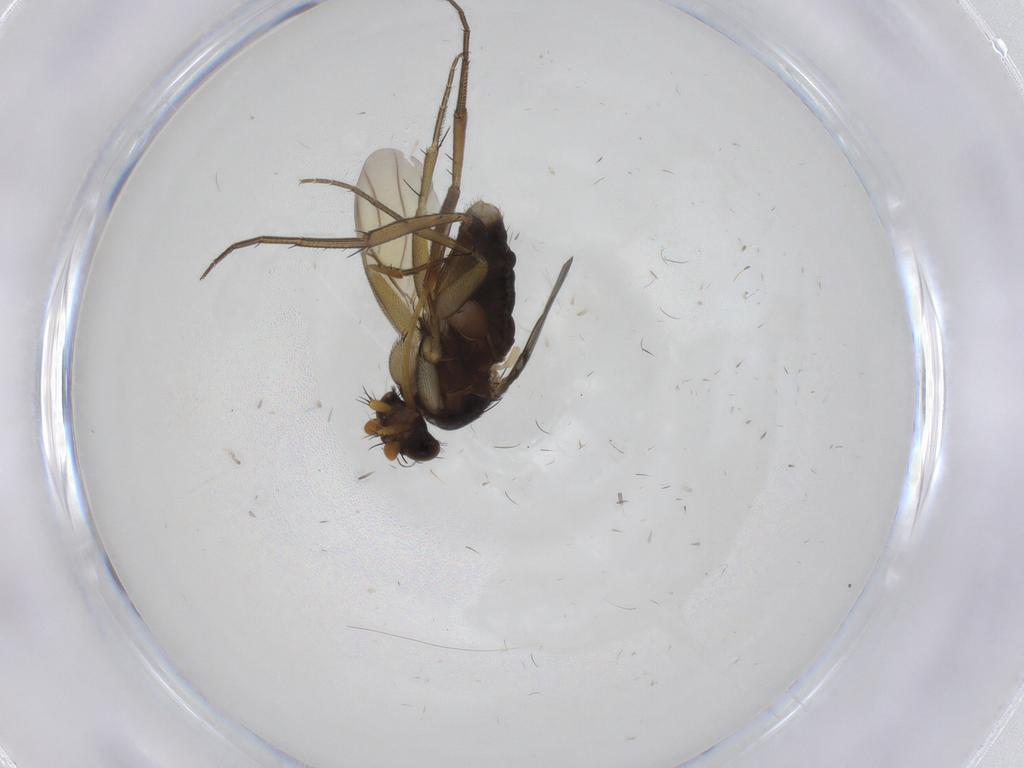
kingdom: Animalia
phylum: Arthropoda
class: Insecta
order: Diptera
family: Phoridae
